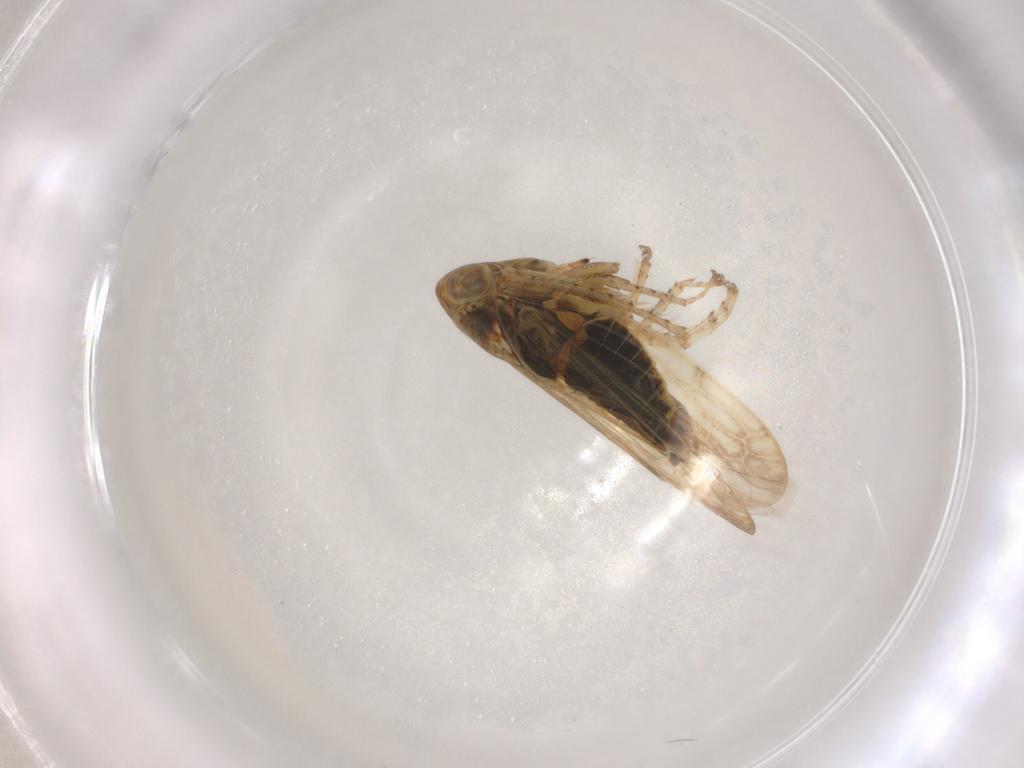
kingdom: Animalia
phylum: Arthropoda
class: Insecta
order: Hemiptera
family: Cicadellidae
